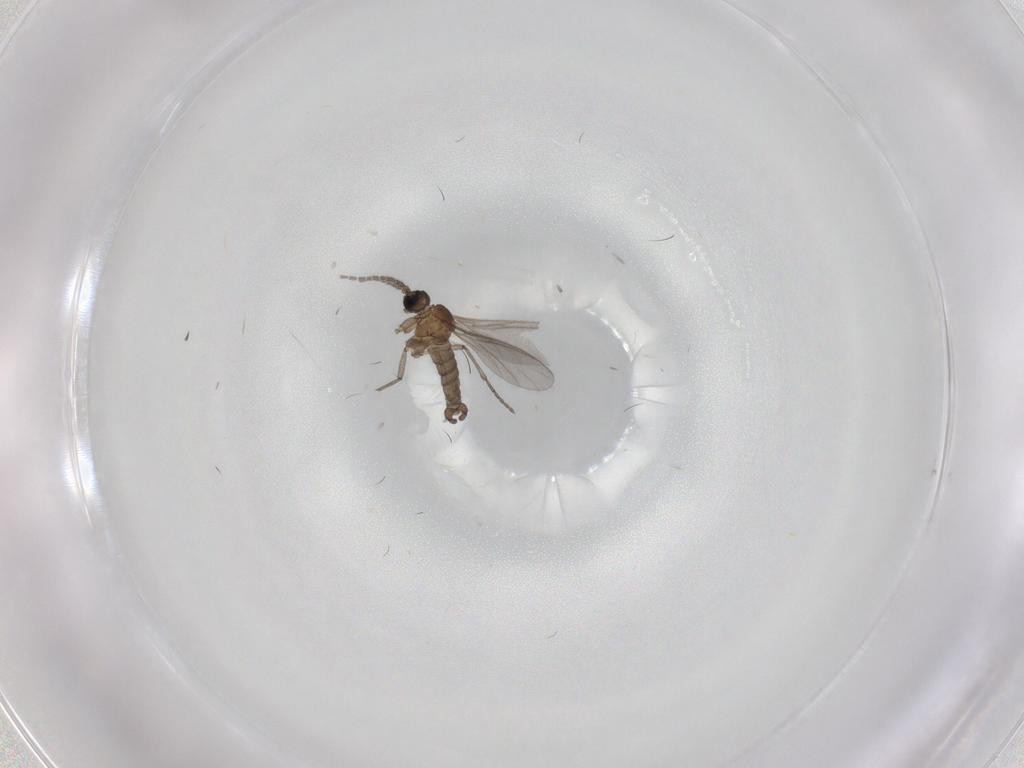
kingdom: Animalia
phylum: Arthropoda
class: Insecta
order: Diptera
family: Sciaridae
